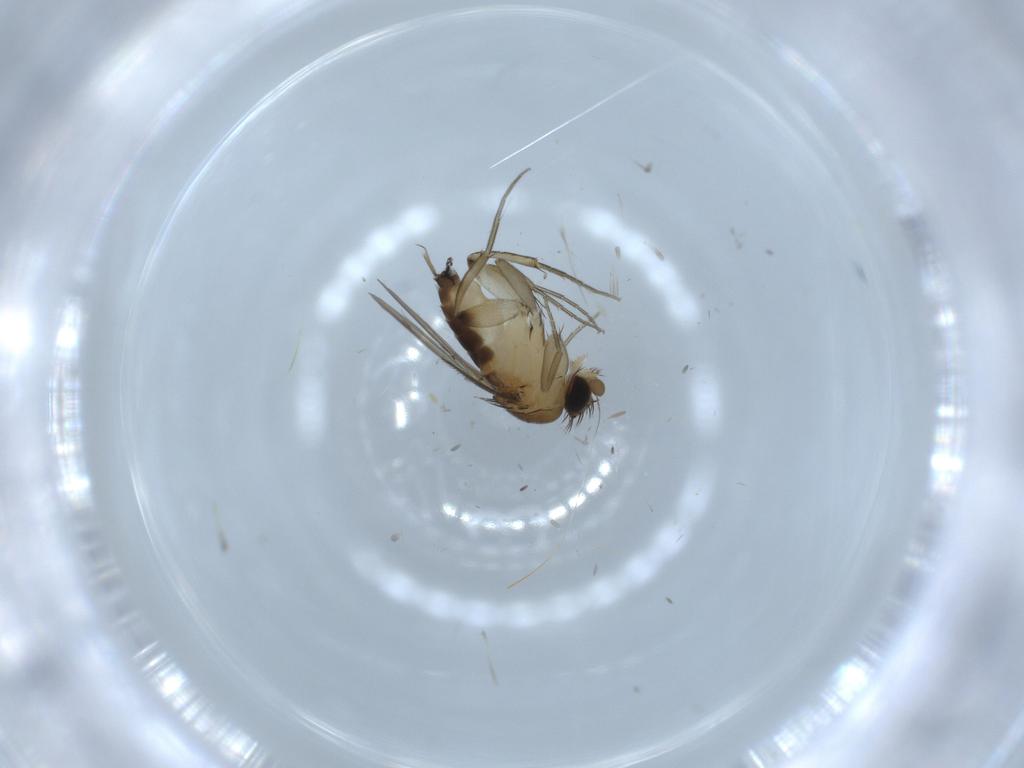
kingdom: Animalia
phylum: Arthropoda
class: Insecta
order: Diptera
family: Phoridae
